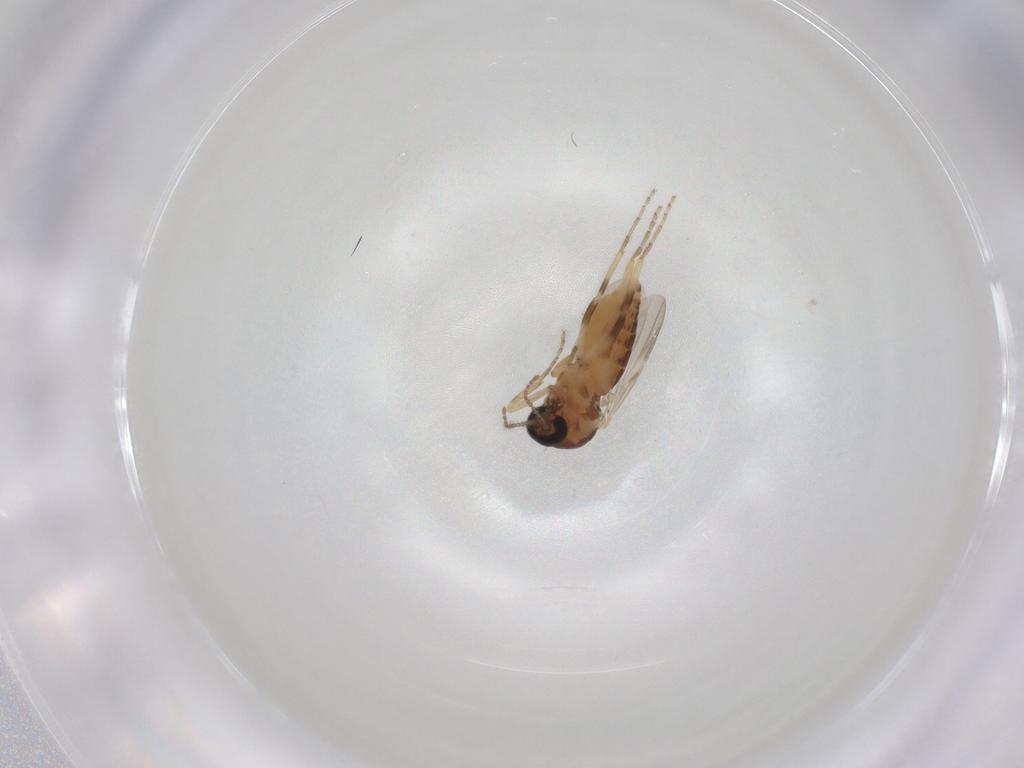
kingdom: Animalia
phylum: Arthropoda
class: Insecta
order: Diptera
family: Ceratopogonidae
